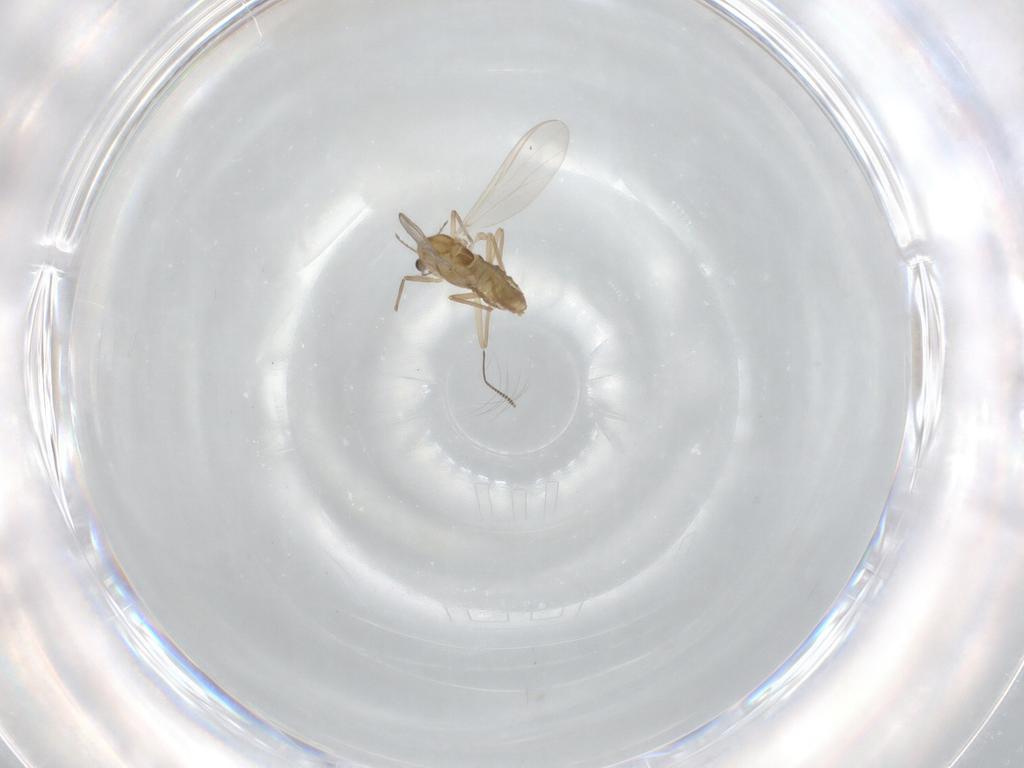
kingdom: Animalia
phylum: Arthropoda
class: Insecta
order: Diptera
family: Chironomidae
